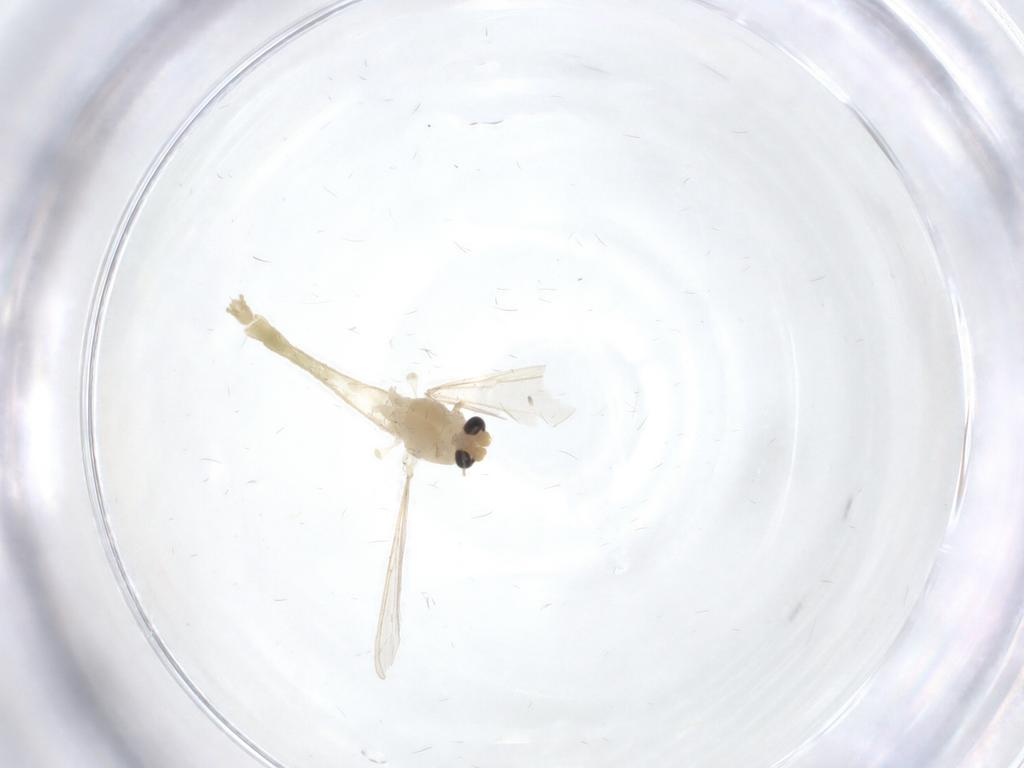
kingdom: Animalia
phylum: Arthropoda
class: Insecta
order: Diptera
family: Chironomidae
